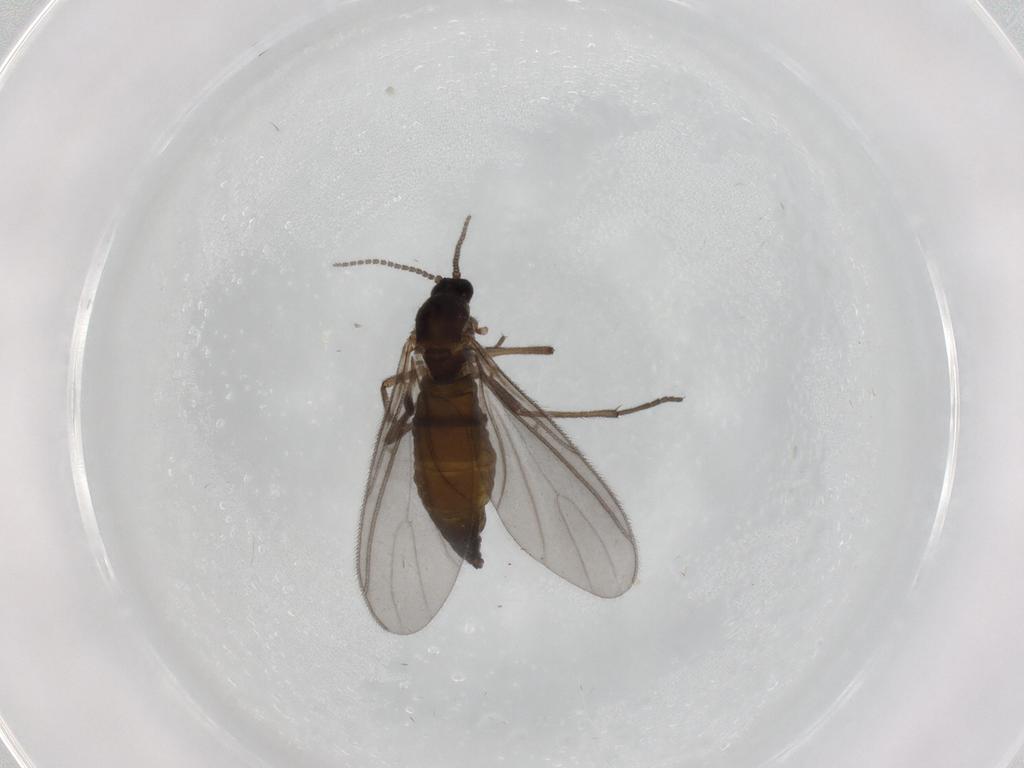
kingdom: Animalia
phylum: Arthropoda
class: Insecta
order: Diptera
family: Sciaridae
